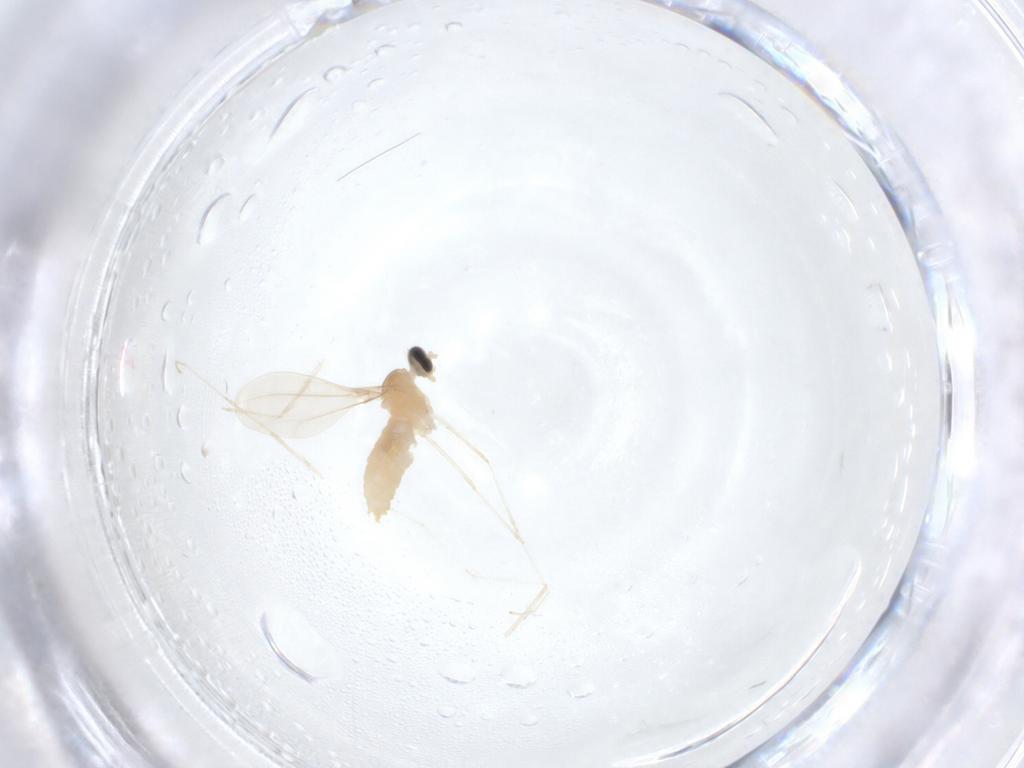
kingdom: Animalia
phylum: Arthropoda
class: Insecta
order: Diptera
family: Cecidomyiidae
